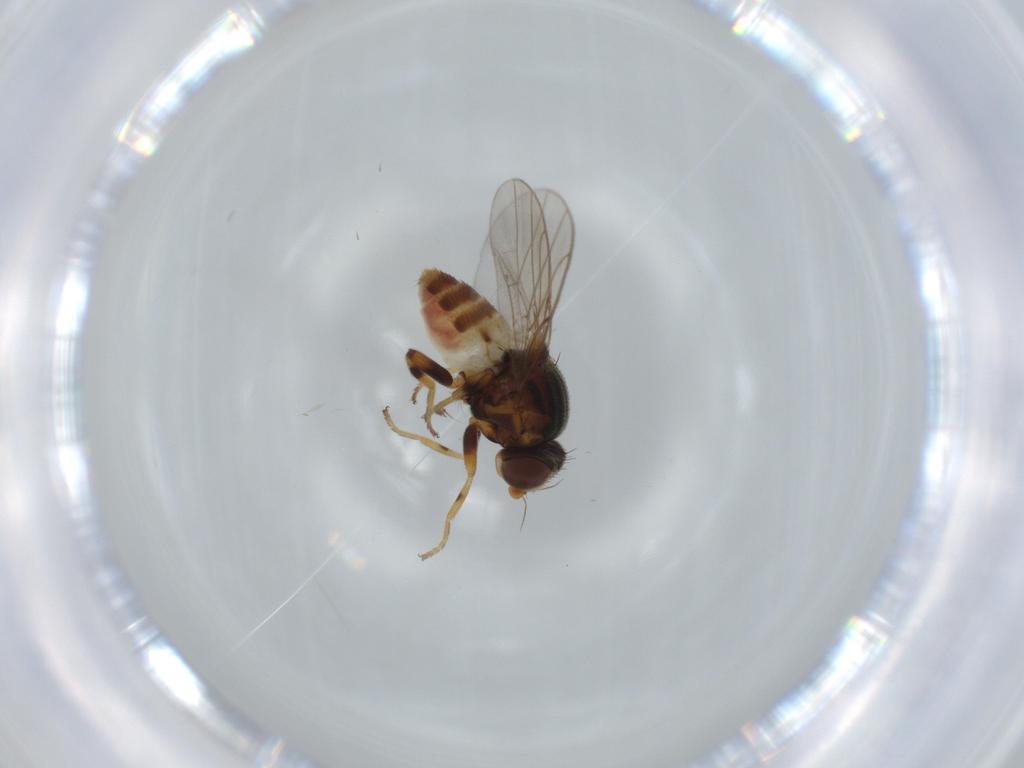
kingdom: Animalia
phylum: Arthropoda
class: Insecta
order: Diptera
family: Chloropidae
